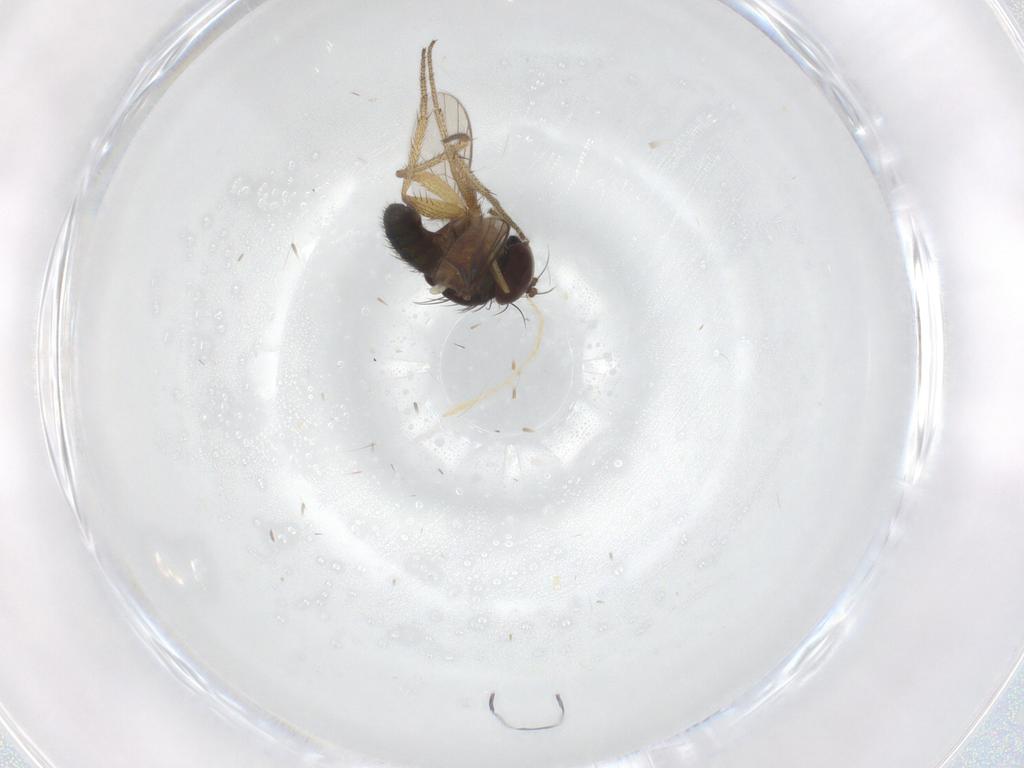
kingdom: Animalia
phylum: Arthropoda
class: Insecta
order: Diptera
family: Dolichopodidae
